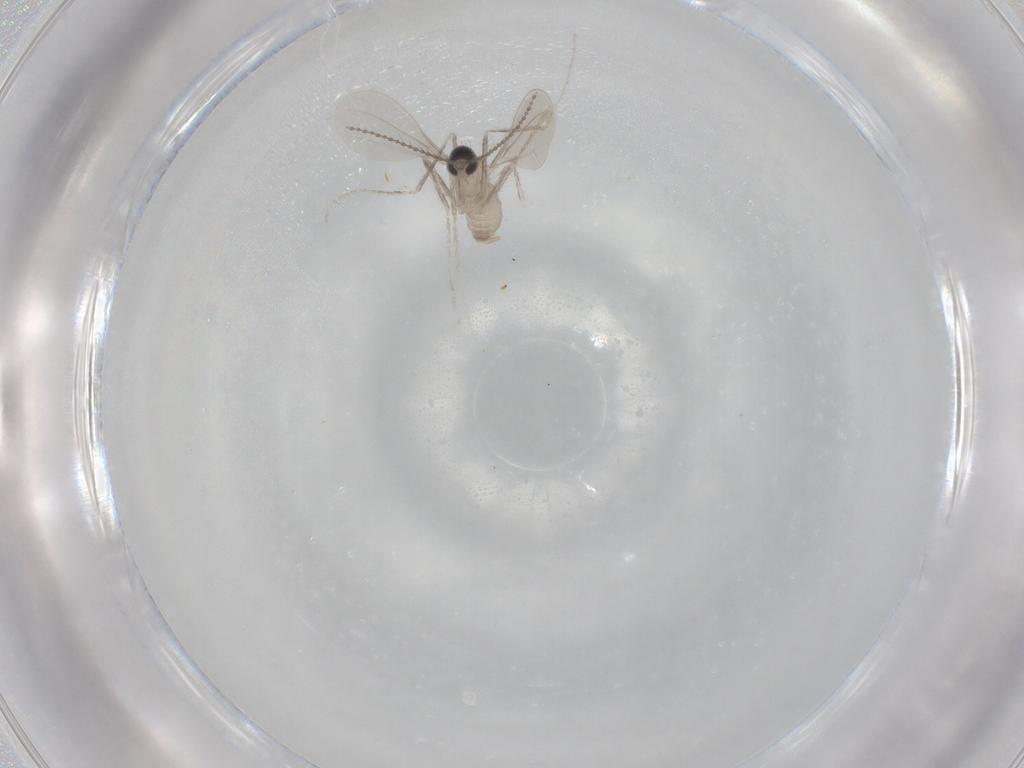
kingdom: Animalia
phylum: Arthropoda
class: Insecta
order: Diptera
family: Cecidomyiidae
